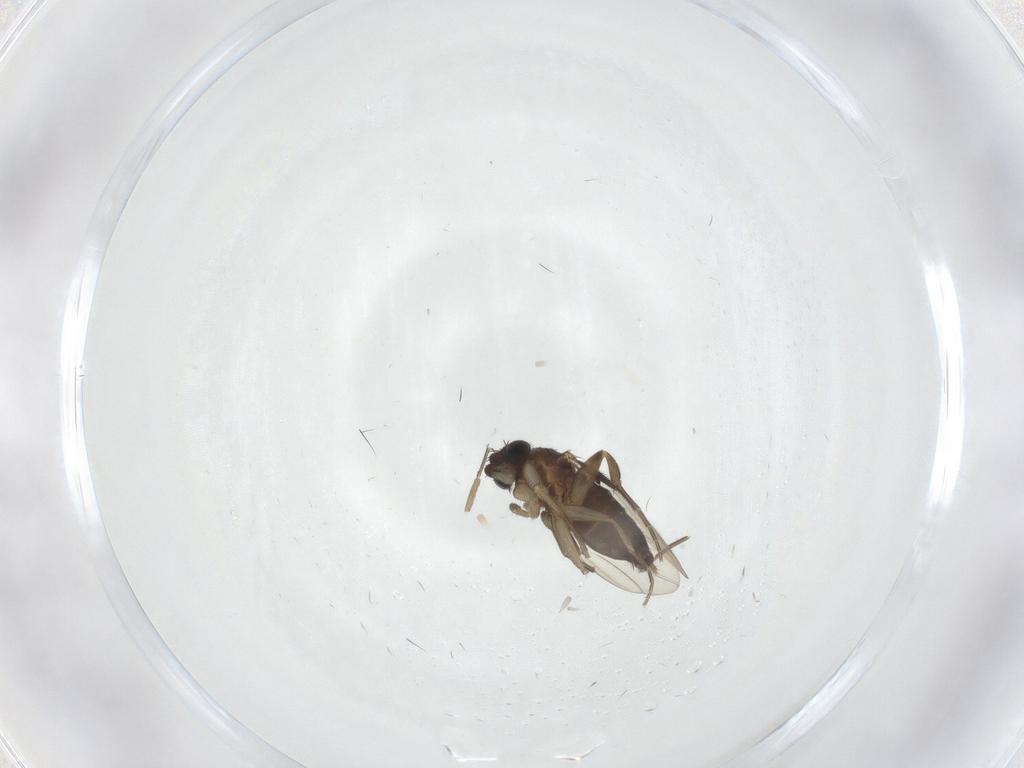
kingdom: Animalia
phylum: Arthropoda
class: Insecta
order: Diptera
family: Phoridae
